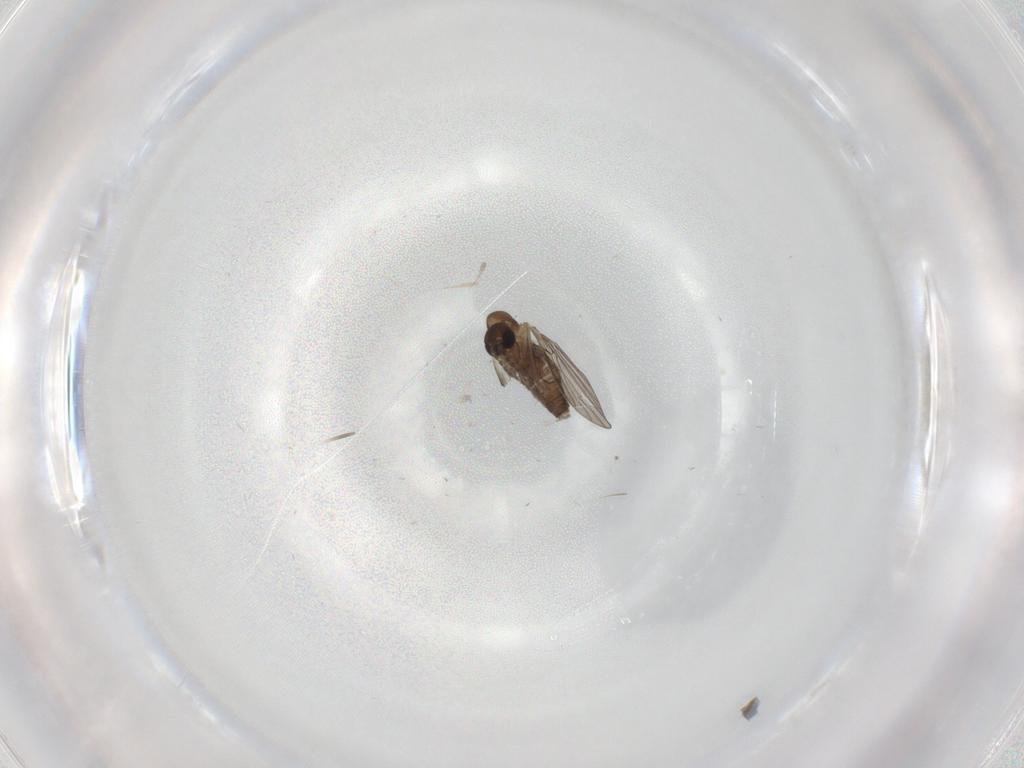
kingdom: Animalia
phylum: Arthropoda
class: Insecta
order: Diptera
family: Ceratopogonidae
